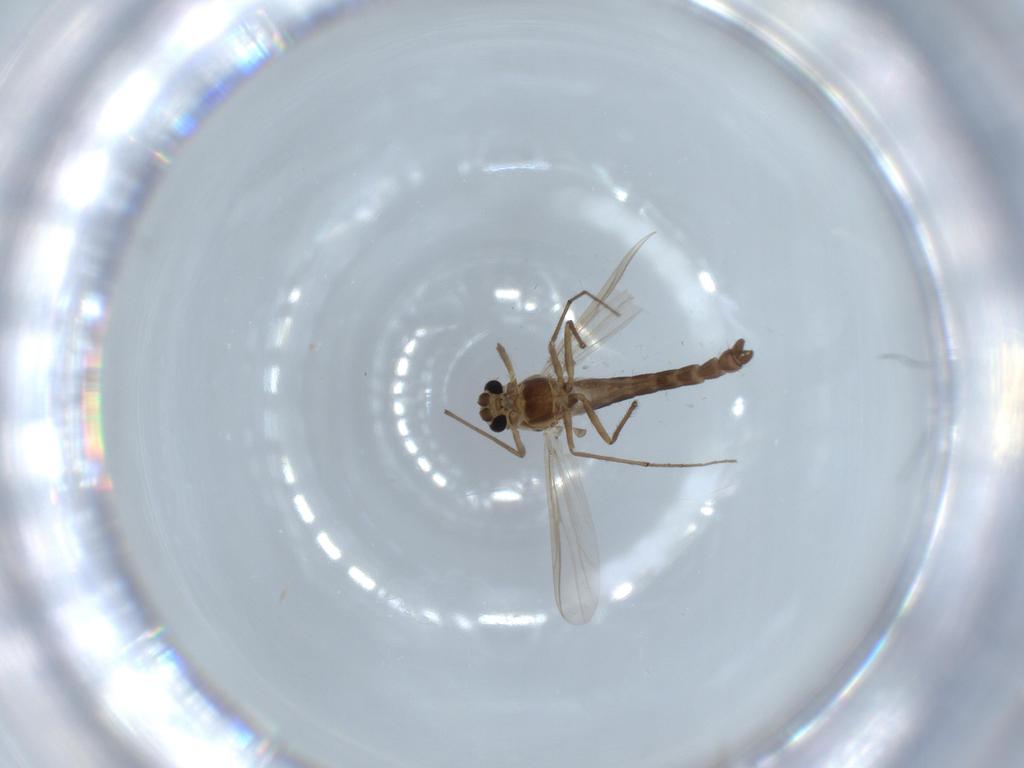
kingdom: Animalia
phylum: Arthropoda
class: Insecta
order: Diptera
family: Chironomidae
